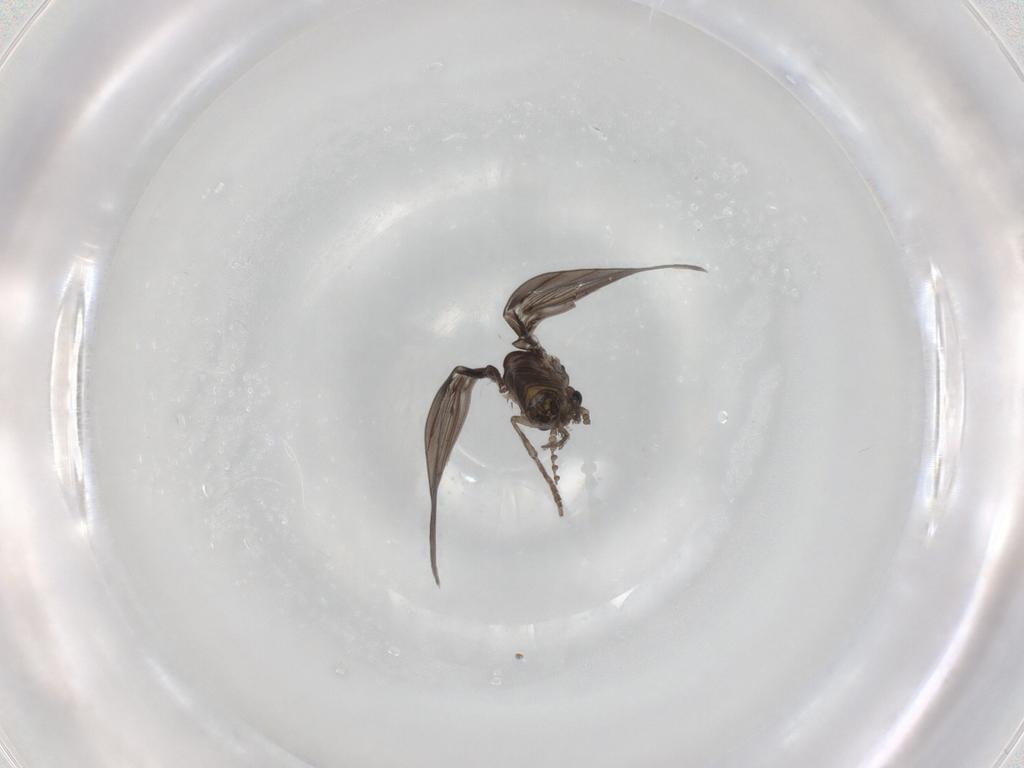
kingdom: Animalia
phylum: Arthropoda
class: Insecta
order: Diptera
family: Psychodidae
